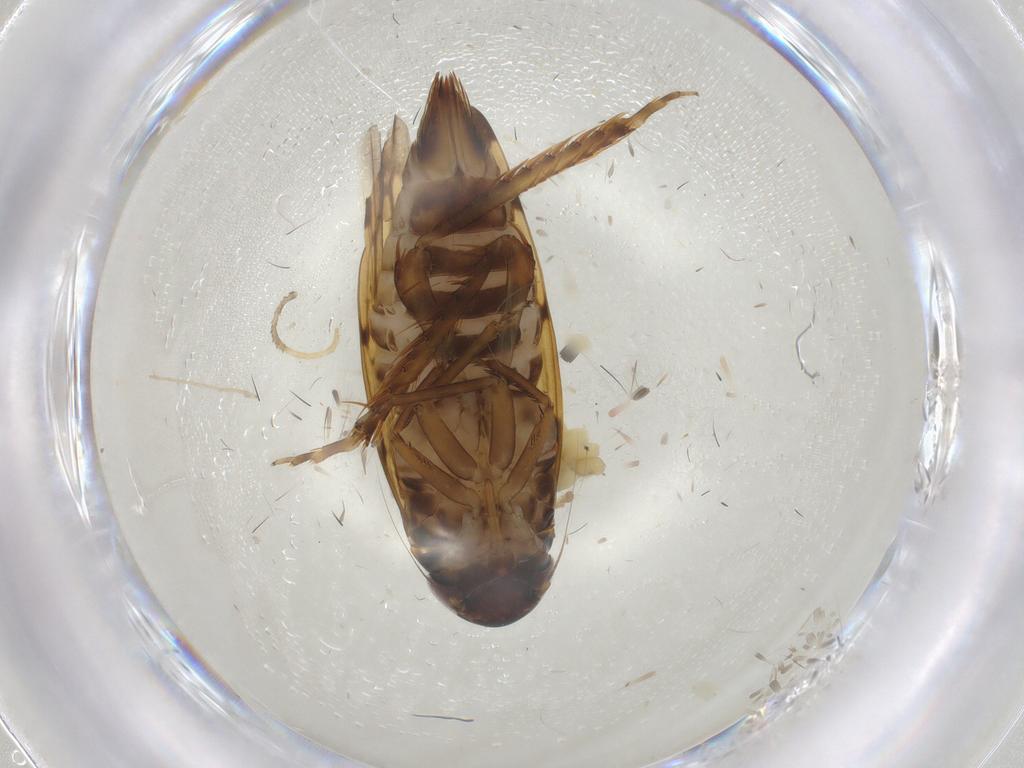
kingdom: Animalia
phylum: Arthropoda
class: Insecta
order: Hemiptera
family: Cicadellidae
